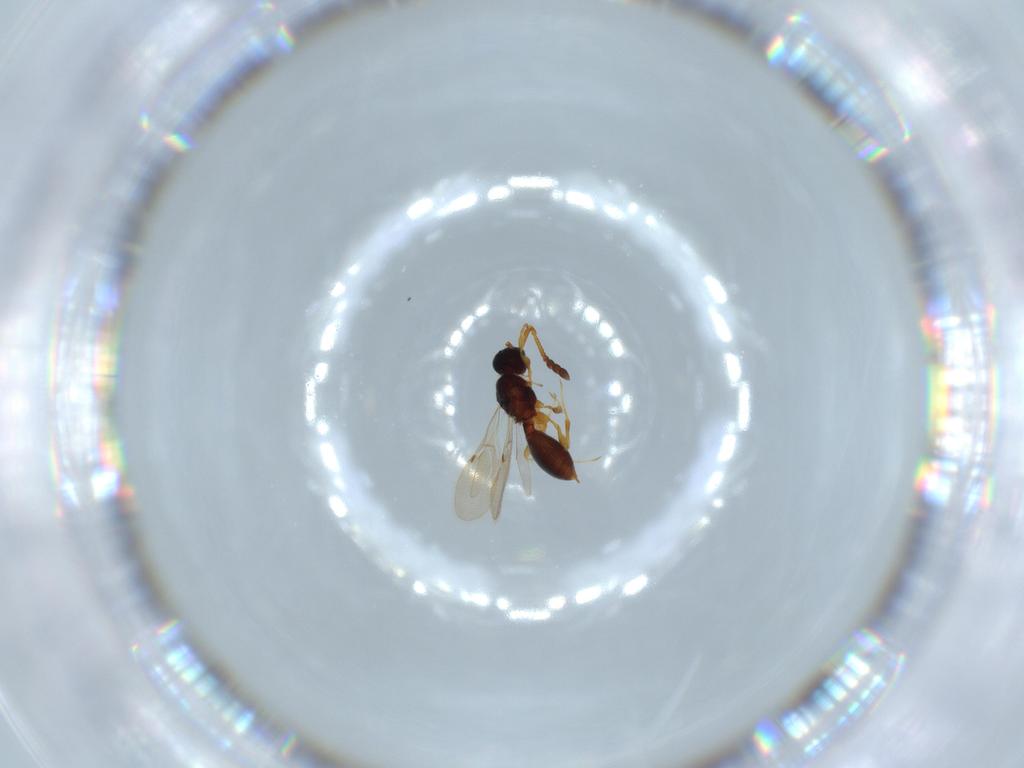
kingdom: Animalia
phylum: Arthropoda
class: Insecta
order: Hymenoptera
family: Diapriidae
